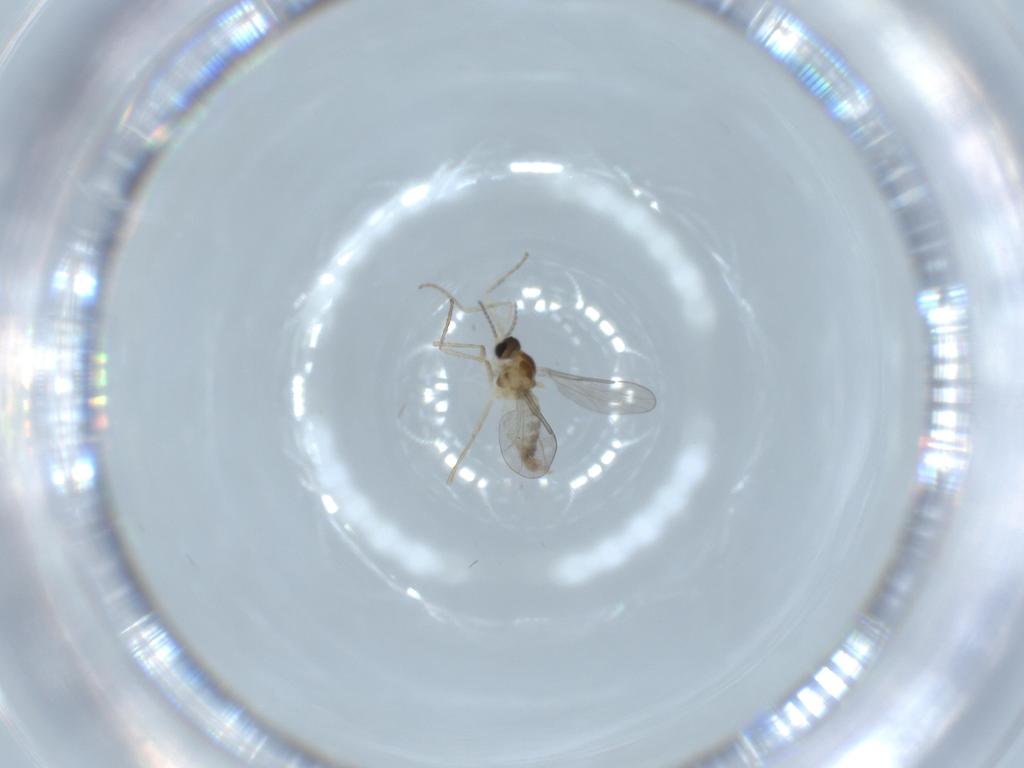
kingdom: Animalia
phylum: Arthropoda
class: Insecta
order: Diptera
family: Cecidomyiidae
